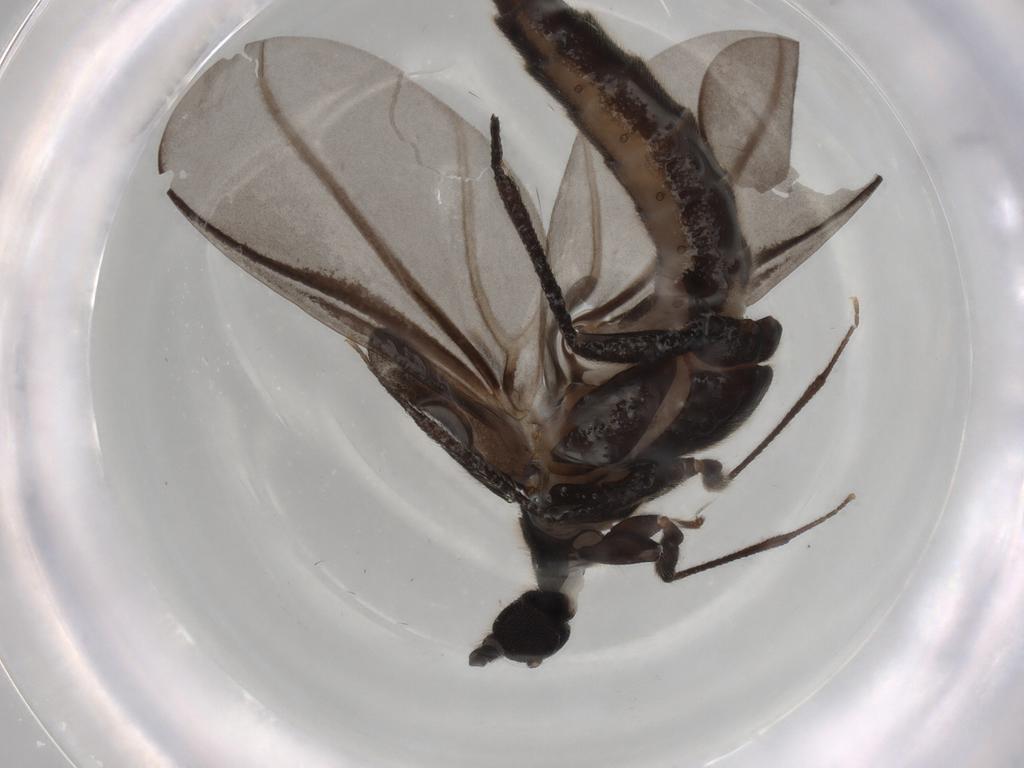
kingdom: Animalia
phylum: Arthropoda
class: Insecta
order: Coleoptera
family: Ripiphoridae
